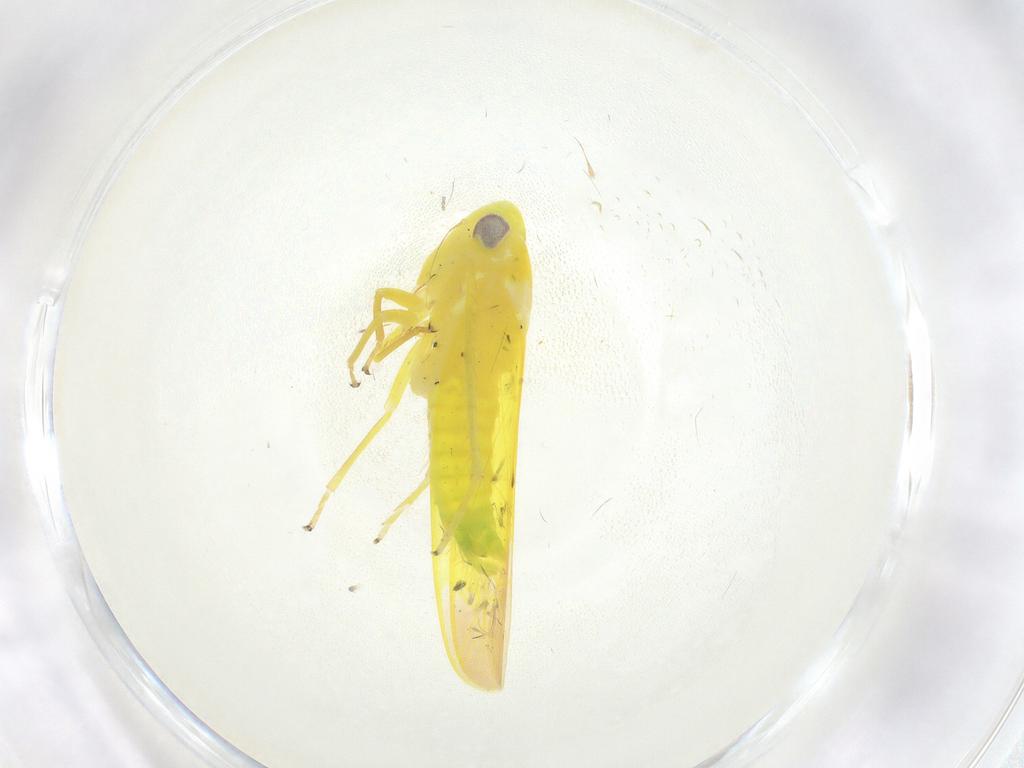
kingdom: Animalia
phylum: Arthropoda
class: Insecta
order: Hemiptera
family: Cicadellidae
